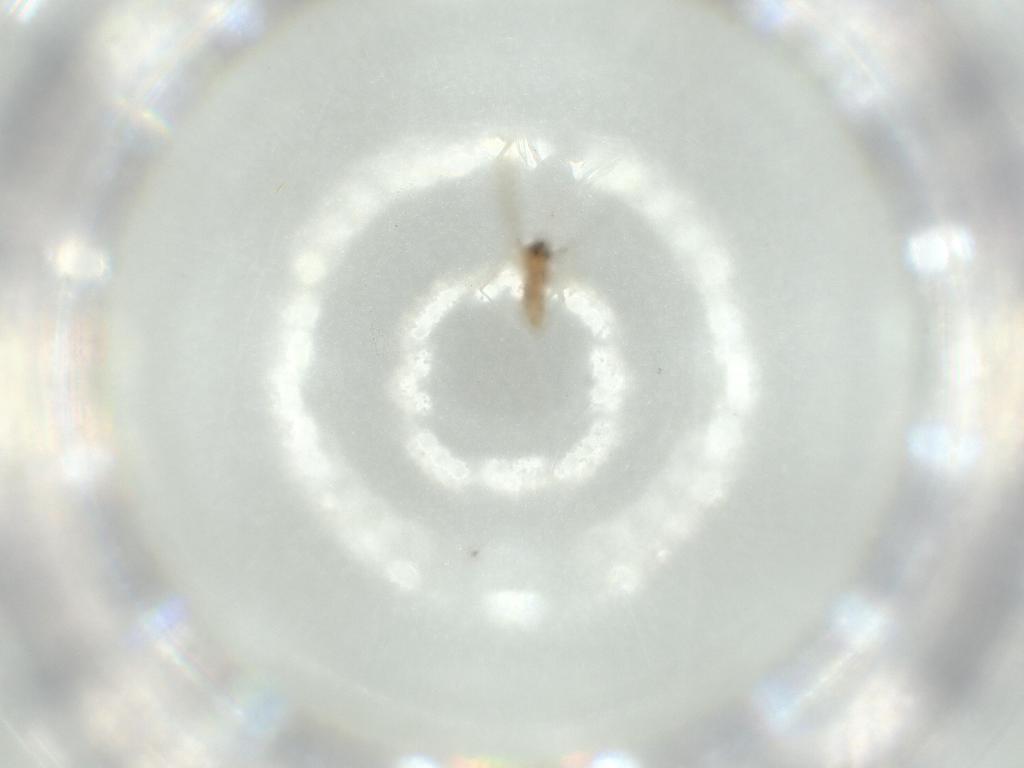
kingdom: Animalia
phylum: Arthropoda
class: Insecta
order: Diptera
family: Cecidomyiidae
